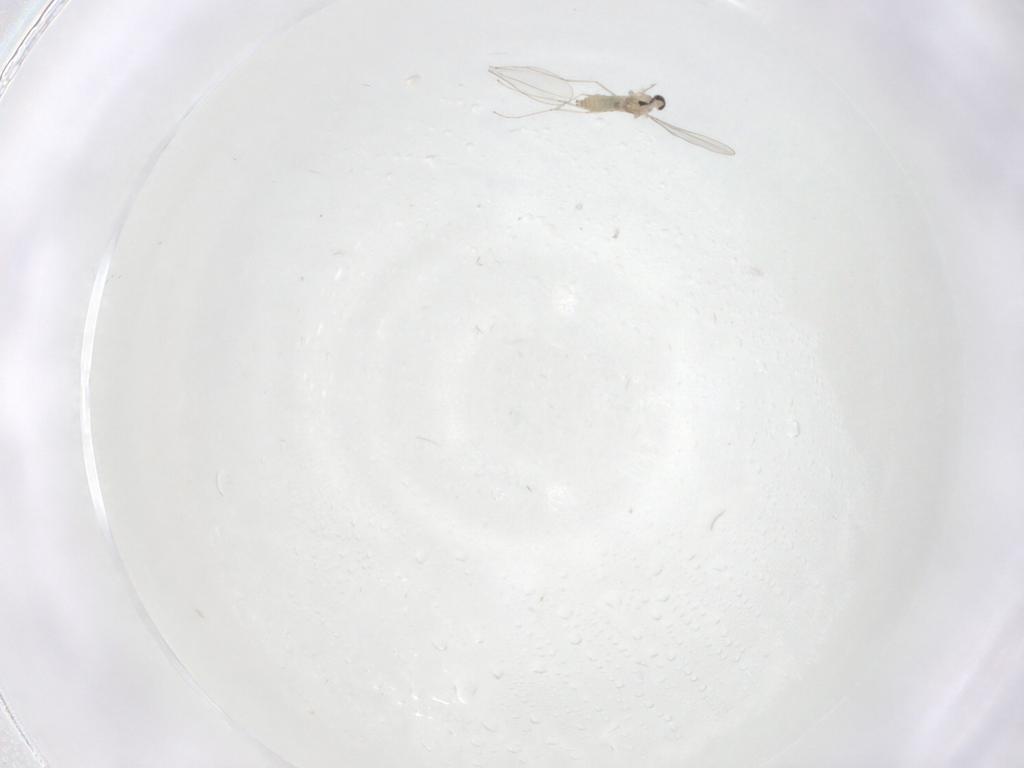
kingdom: Animalia
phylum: Arthropoda
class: Insecta
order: Diptera
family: Cecidomyiidae
